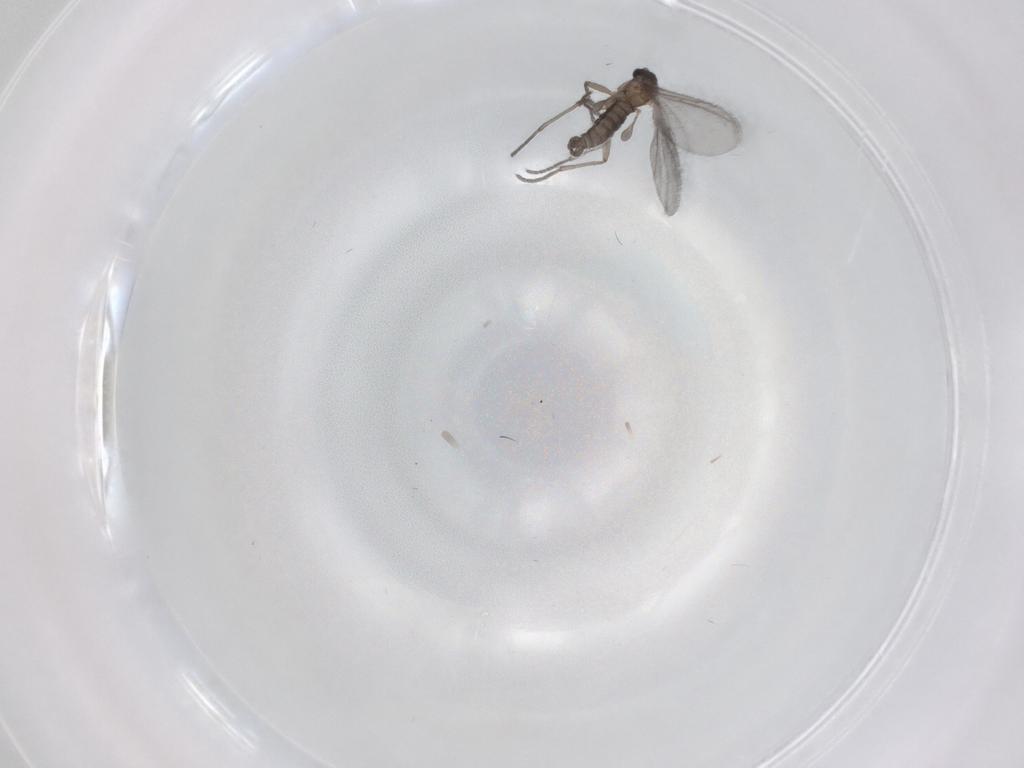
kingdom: Animalia
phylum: Arthropoda
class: Insecta
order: Diptera
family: Sciaridae
